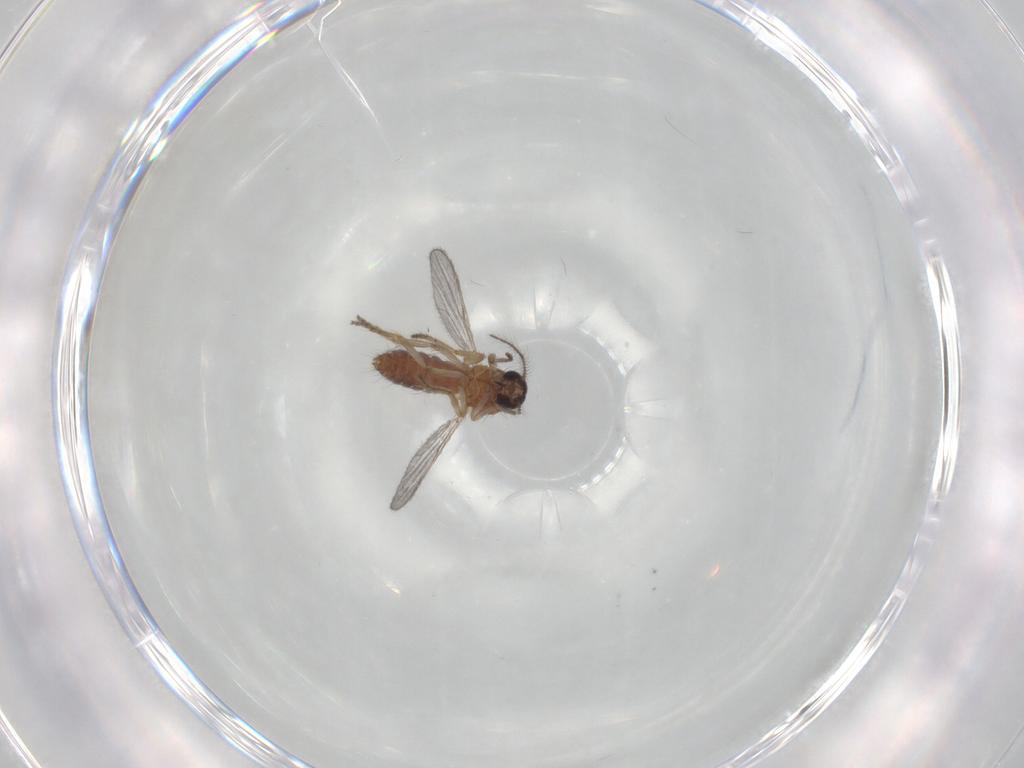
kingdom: Animalia
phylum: Arthropoda
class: Insecta
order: Diptera
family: Ceratopogonidae
